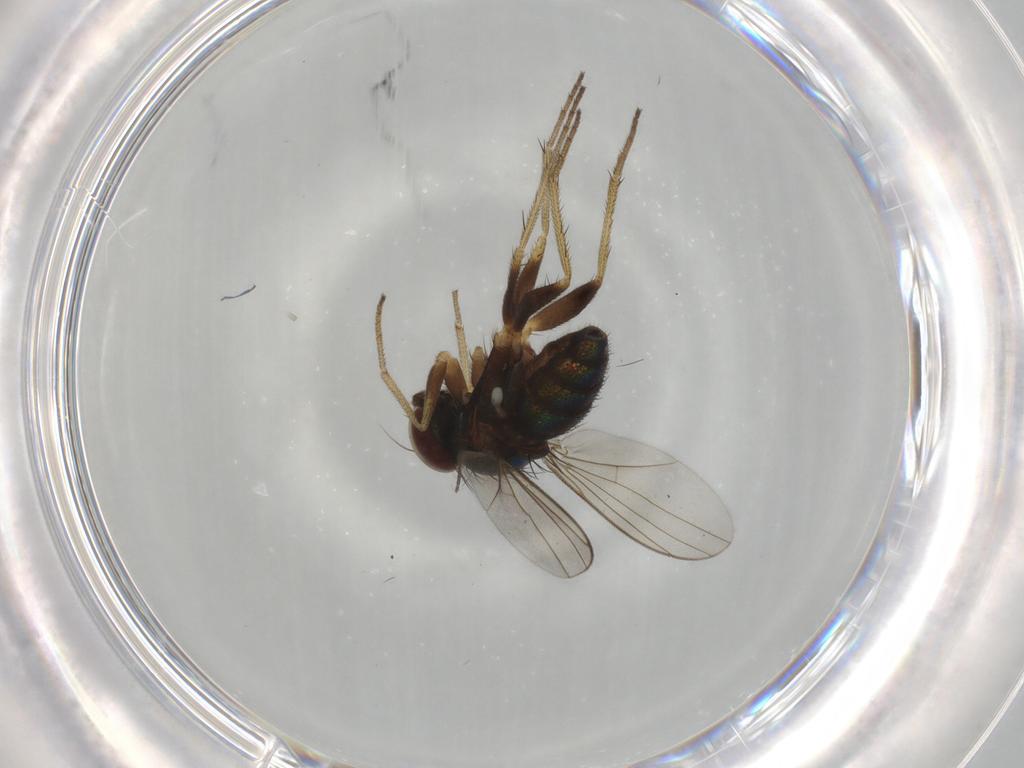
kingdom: Animalia
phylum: Arthropoda
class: Insecta
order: Diptera
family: Cecidomyiidae
